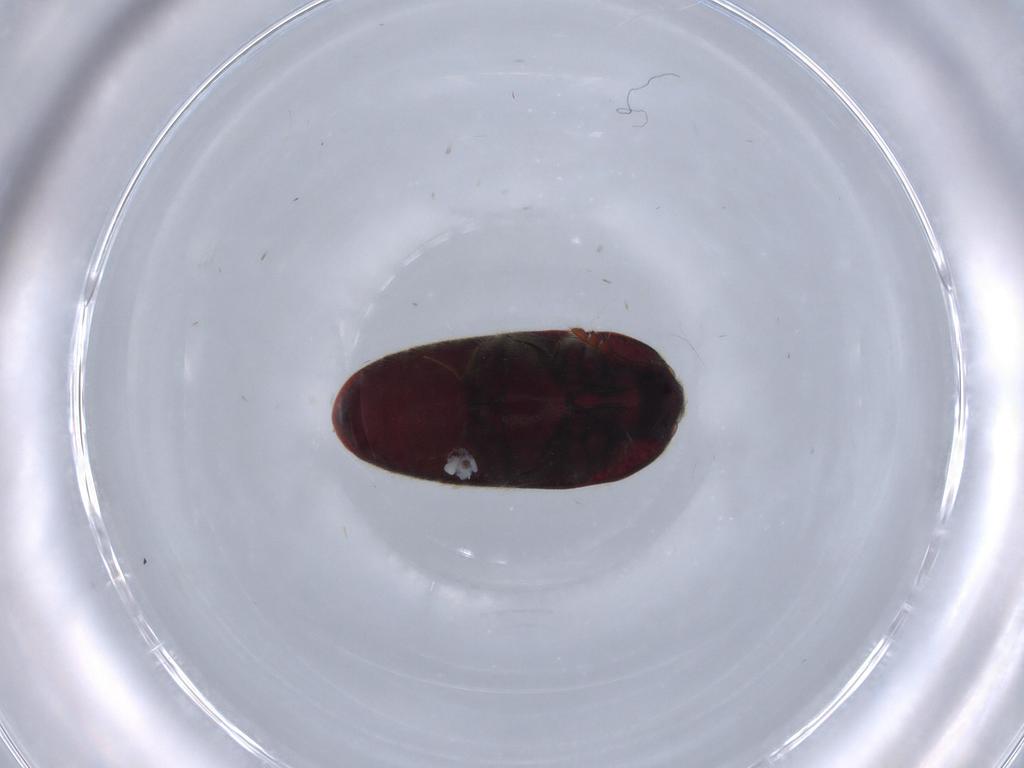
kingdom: Animalia
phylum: Arthropoda
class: Insecta
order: Coleoptera
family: Throscidae
